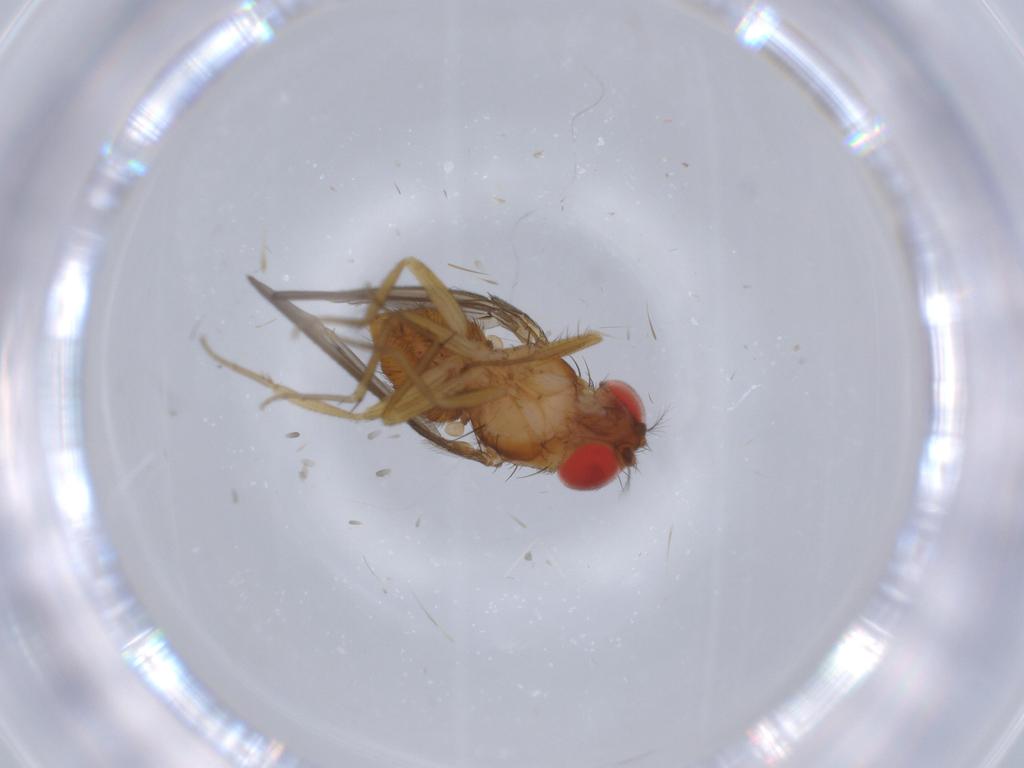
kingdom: Animalia
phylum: Arthropoda
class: Insecta
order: Diptera
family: Drosophilidae
